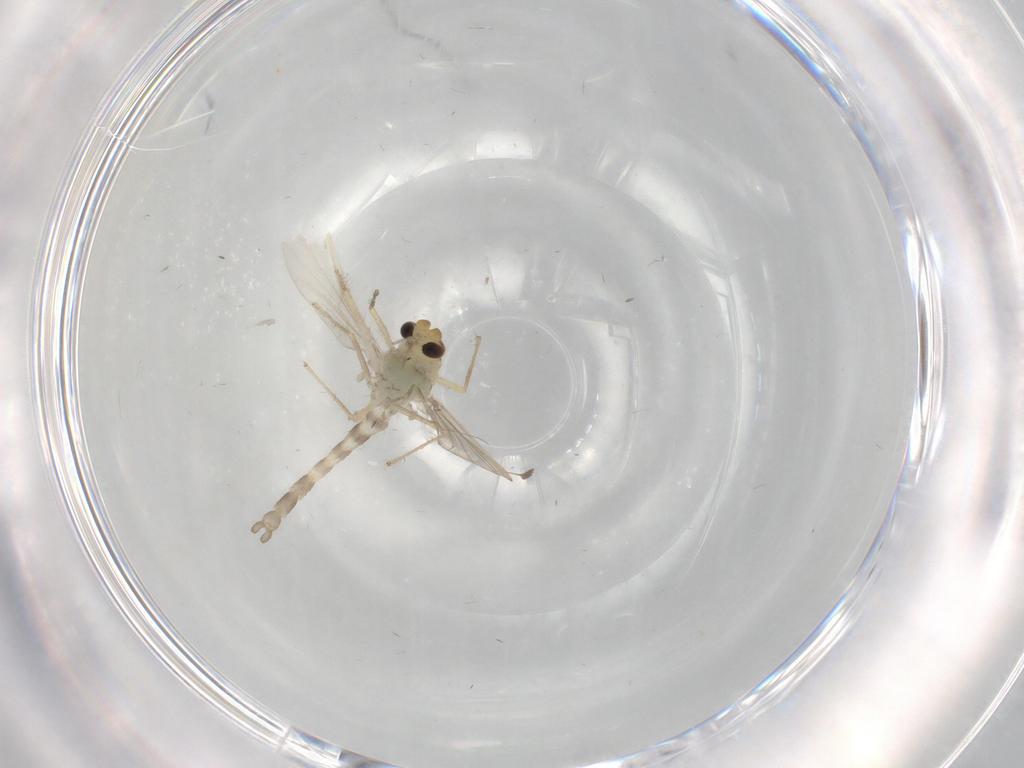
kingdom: Animalia
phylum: Arthropoda
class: Insecta
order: Diptera
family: Chironomidae
